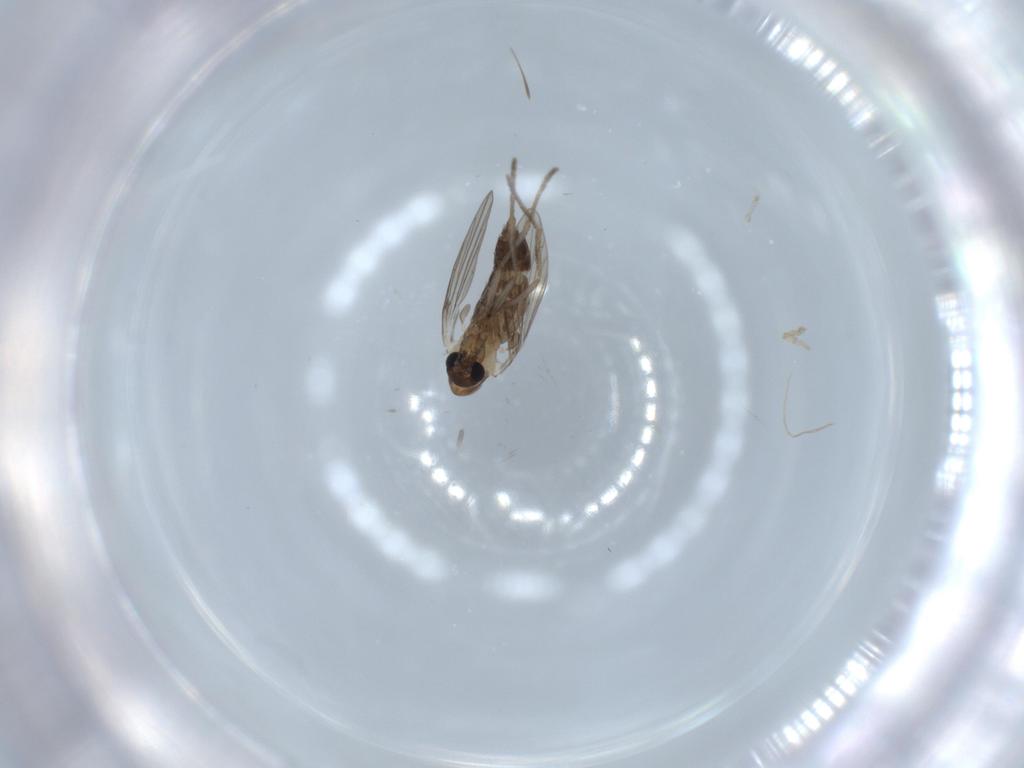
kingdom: Animalia
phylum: Arthropoda
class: Insecta
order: Diptera
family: Psychodidae
